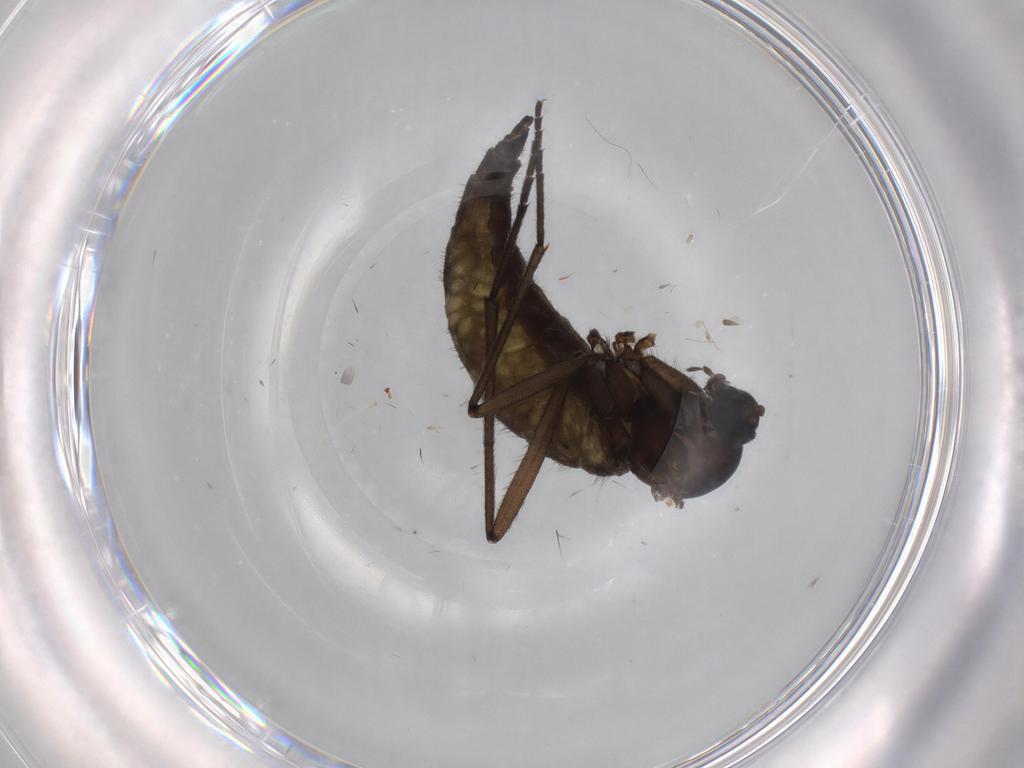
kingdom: Animalia
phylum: Arthropoda
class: Insecta
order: Diptera
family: Sciaridae
